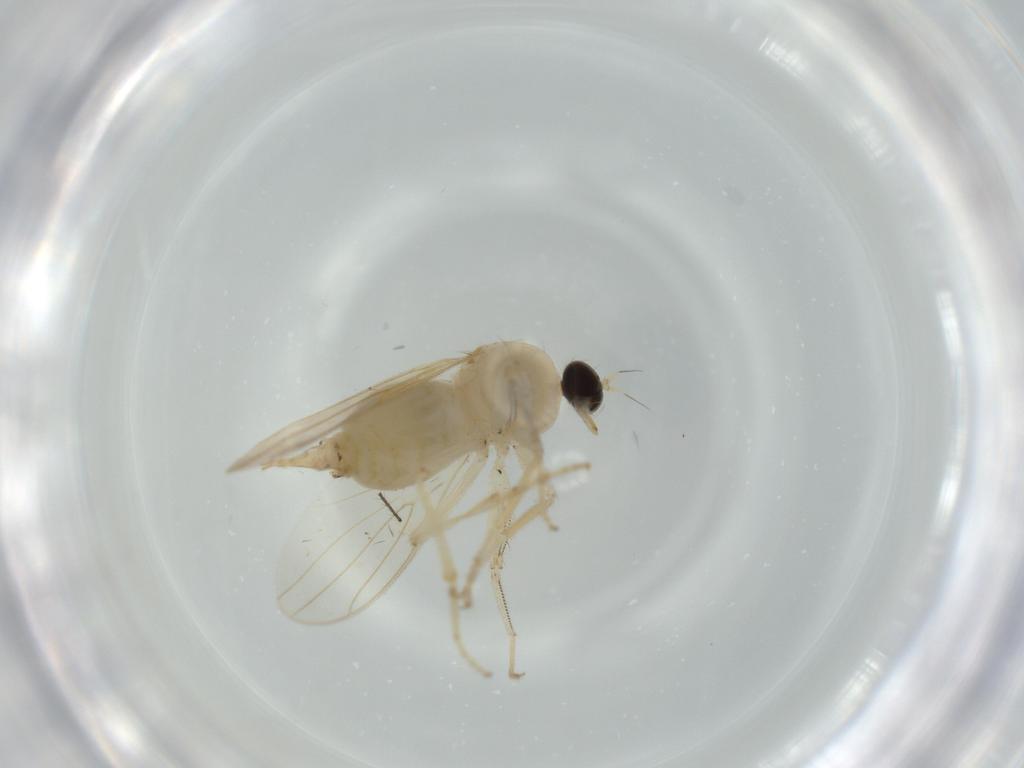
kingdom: Animalia
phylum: Arthropoda
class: Insecta
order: Diptera
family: Hybotidae
